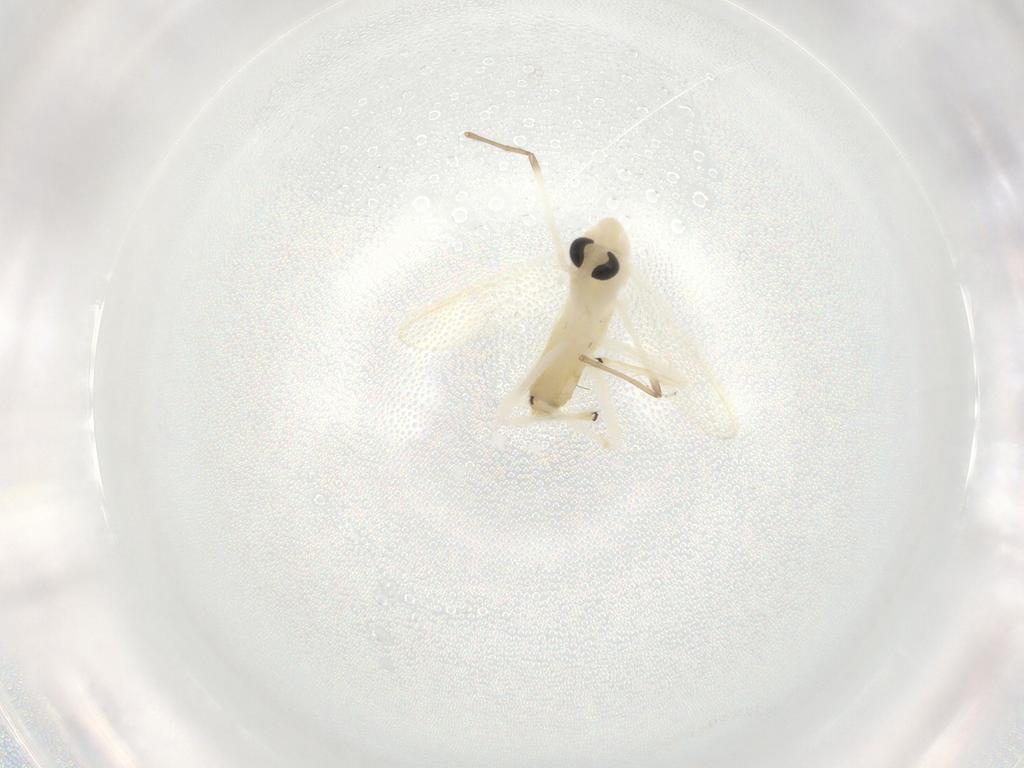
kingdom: Animalia
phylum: Arthropoda
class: Insecta
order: Diptera
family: Chironomidae
